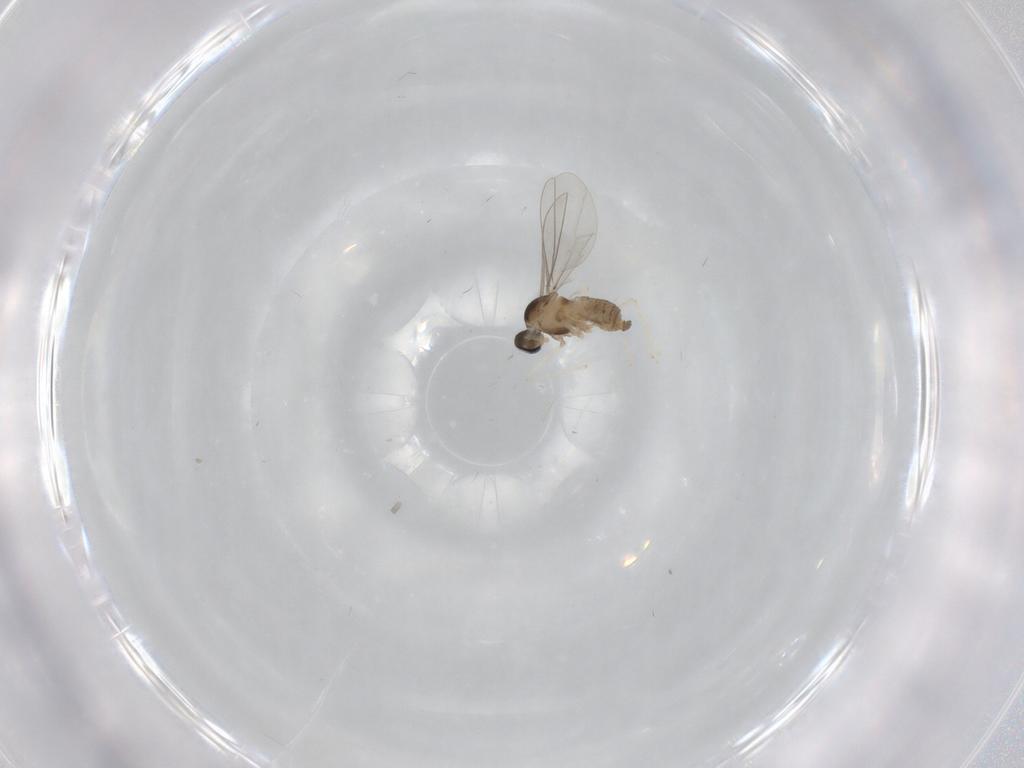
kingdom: Animalia
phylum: Arthropoda
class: Insecta
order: Diptera
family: Cecidomyiidae
